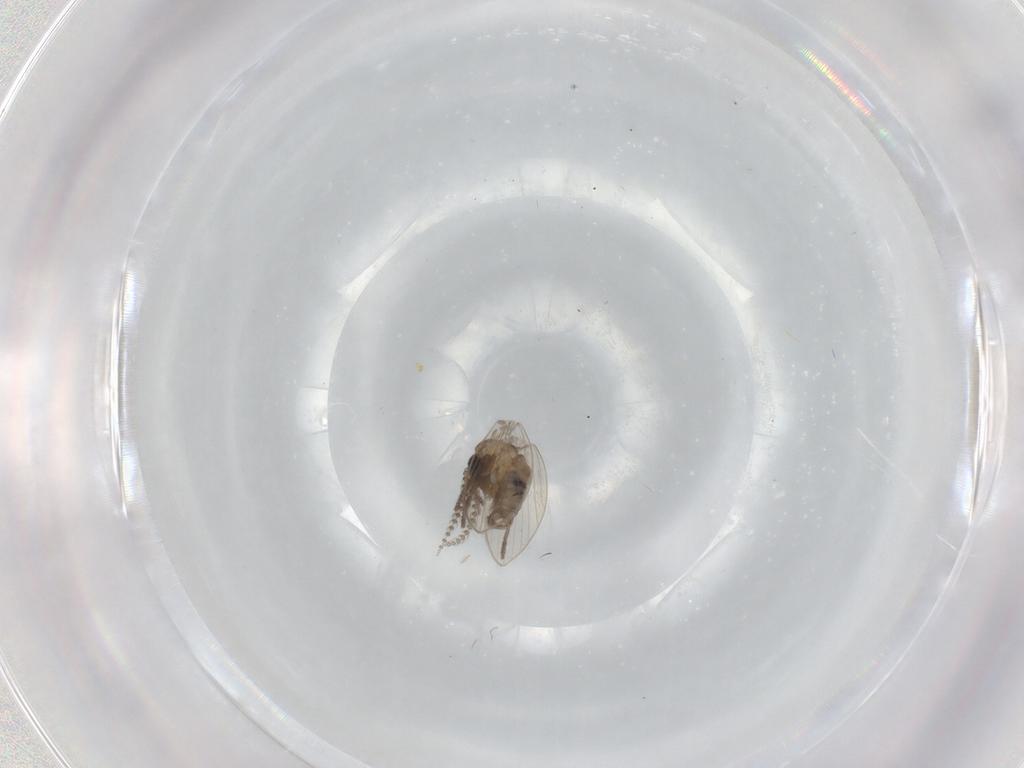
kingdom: Animalia
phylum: Arthropoda
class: Insecta
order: Diptera
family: Psychodidae
